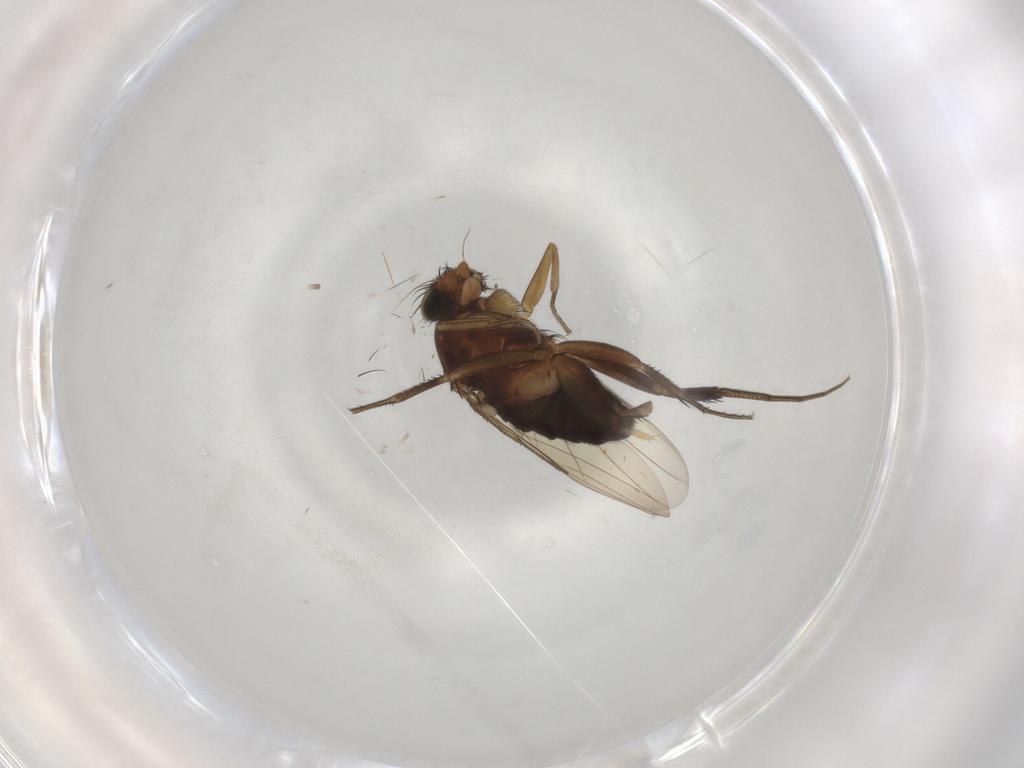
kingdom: Animalia
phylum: Arthropoda
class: Insecta
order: Diptera
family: Phoridae
